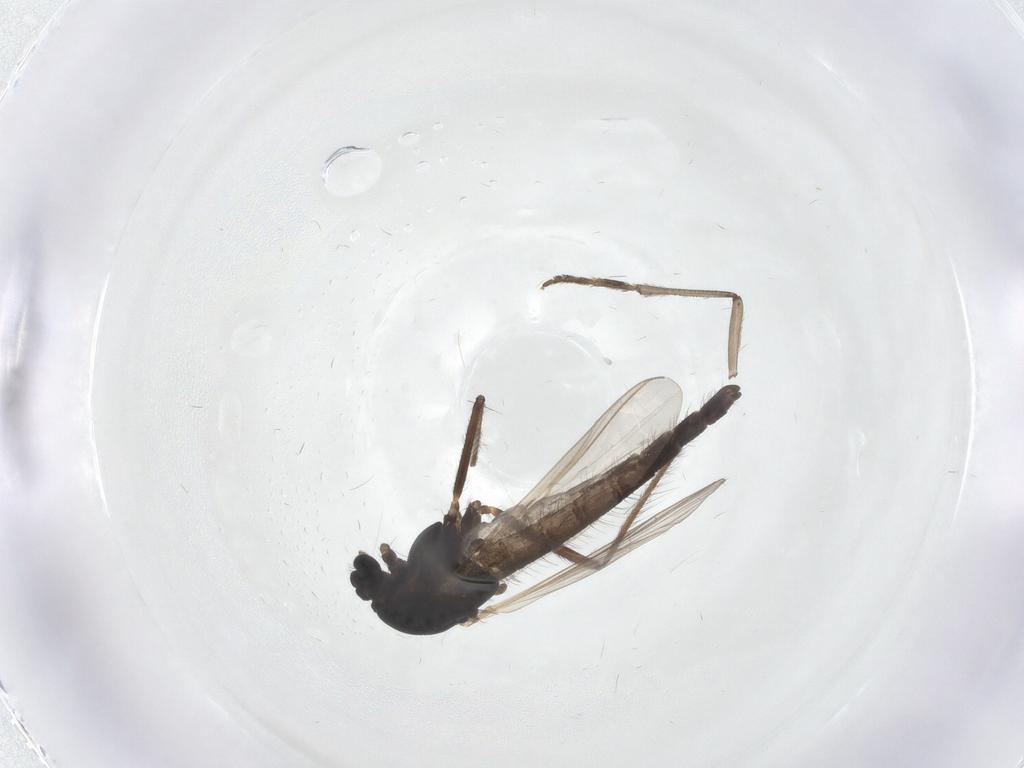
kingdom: Animalia
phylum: Arthropoda
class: Insecta
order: Diptera
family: Chironomidae
